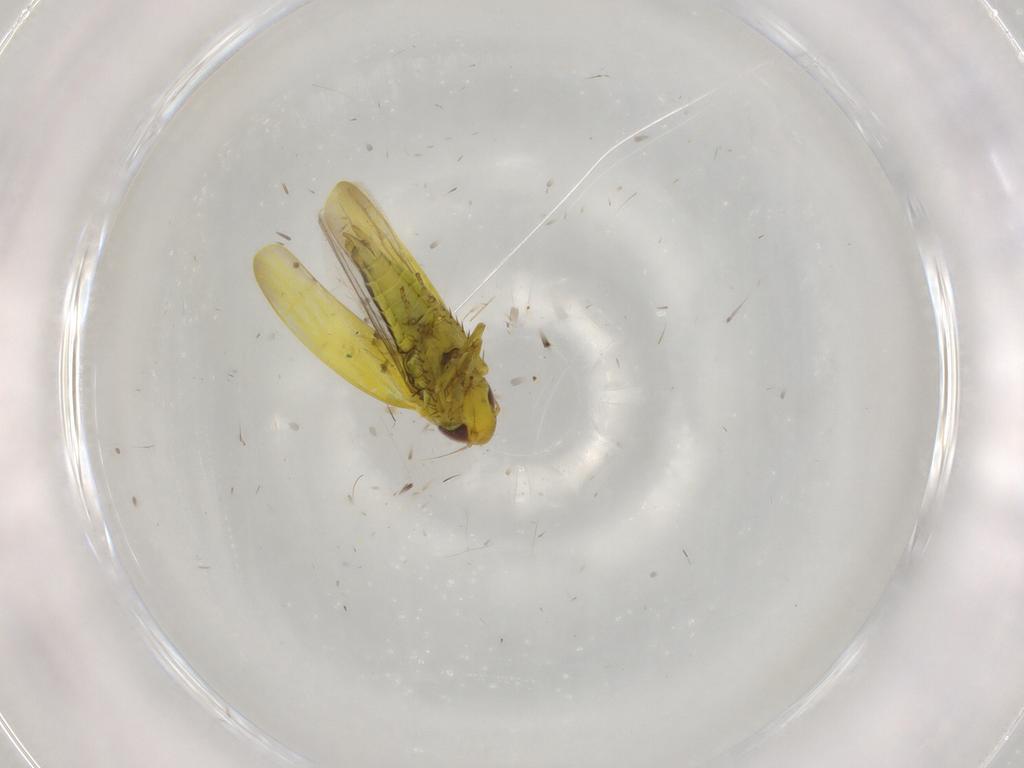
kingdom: Animalia
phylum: Arthropoda
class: Insecta
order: Hemiptera
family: Cicadellidae
